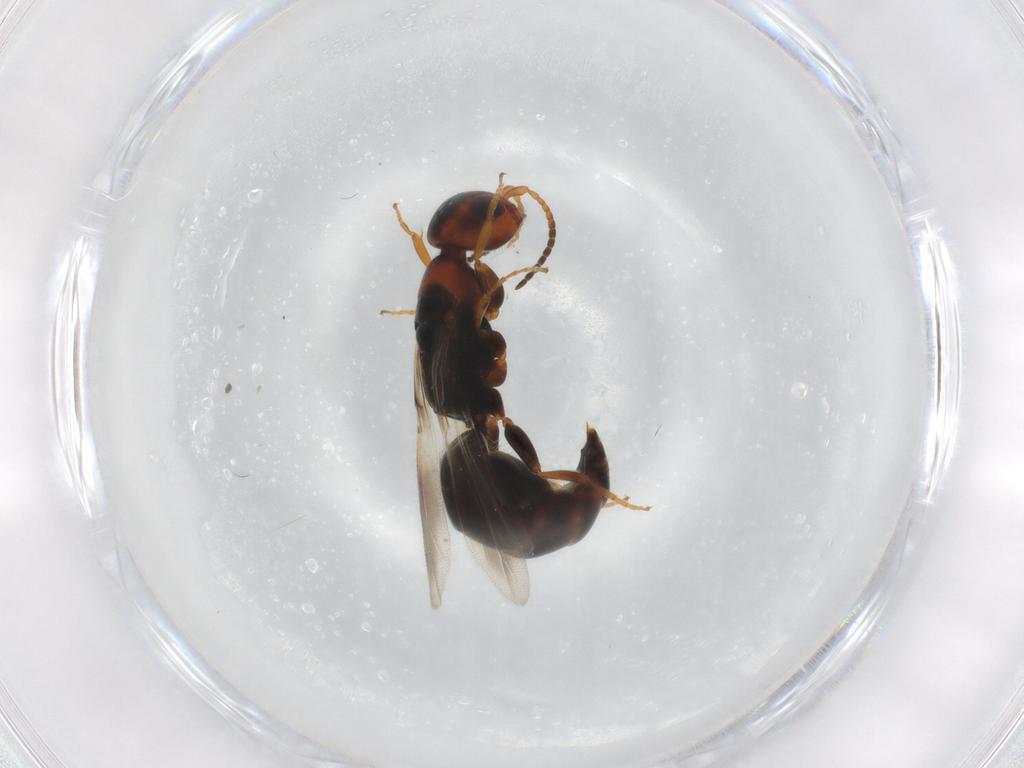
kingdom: Animalia
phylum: Arthropoda
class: Insecta
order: Hymenoptera
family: Bethylidae
